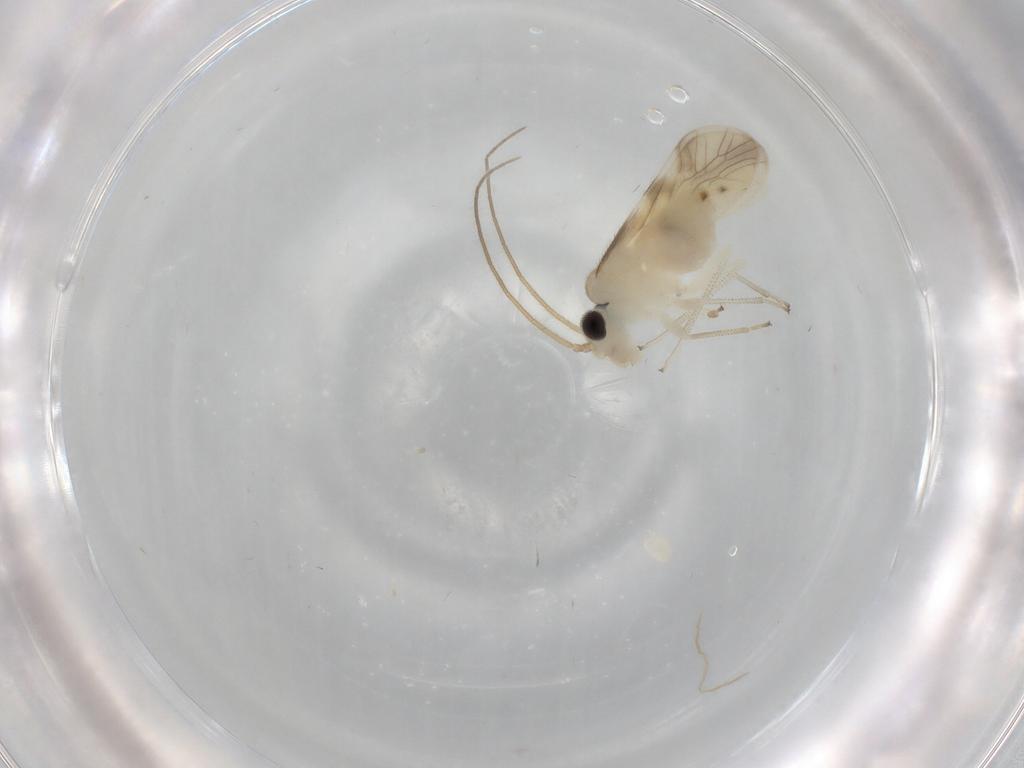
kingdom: Animalia
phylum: Arthropoda
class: Insecta
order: Psocodea
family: Caeciliusidae
